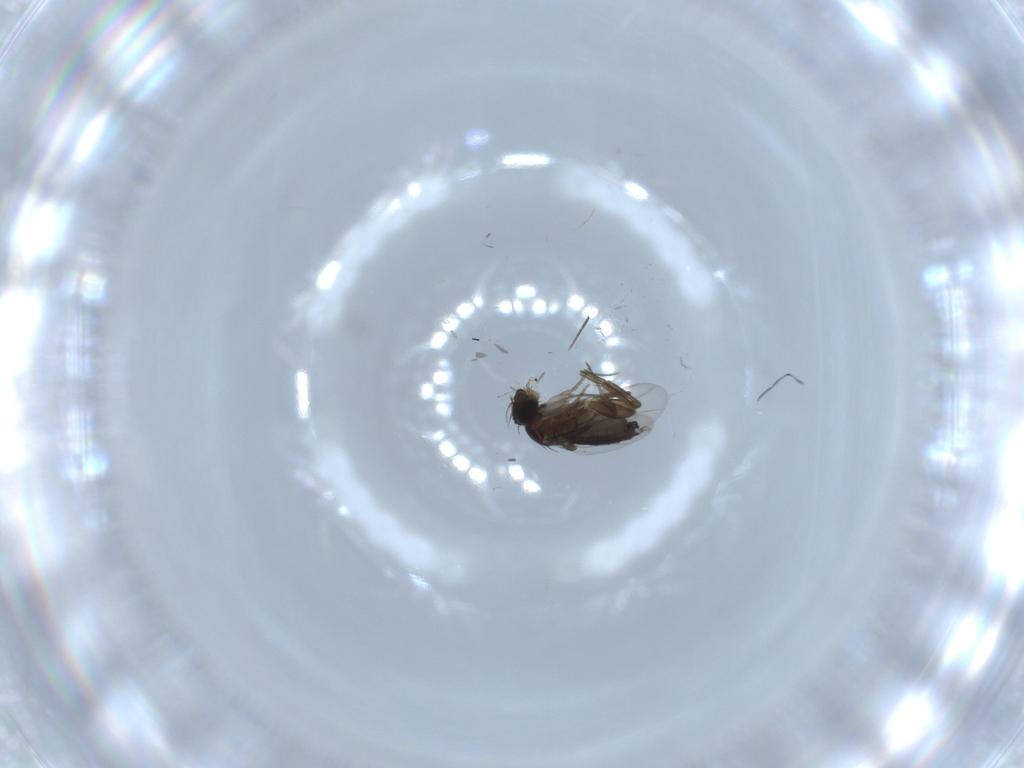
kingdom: Animalia
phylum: Arthropoda
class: Insecta
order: Diptera
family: Phoridae
